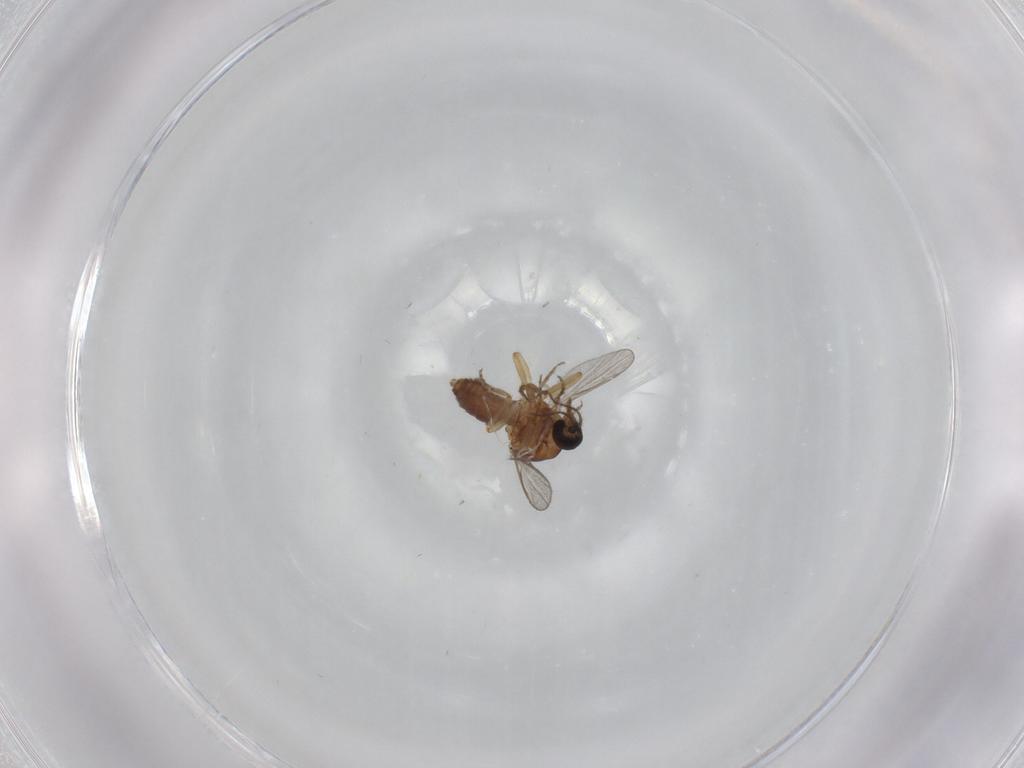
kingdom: Animalia
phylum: Arthropoda
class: Insecta
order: Diptera
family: Ceratopogonidae
